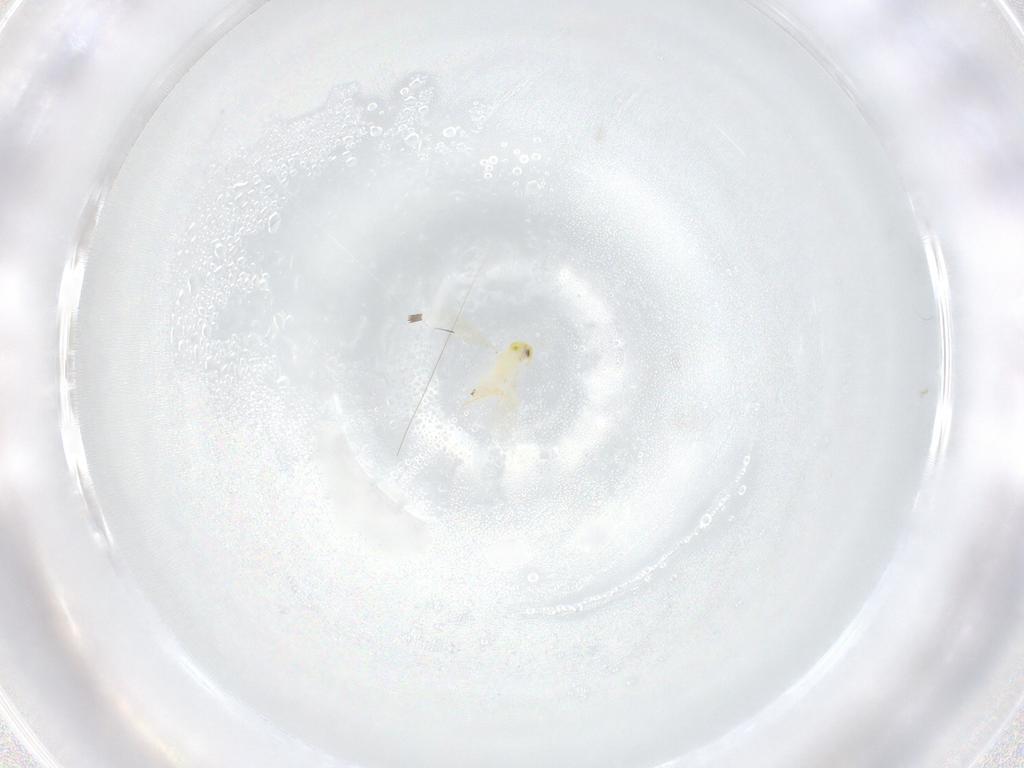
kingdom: Animalia
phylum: Arthropoda
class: Insecta
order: Hymenoptera
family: Aphelinidae
